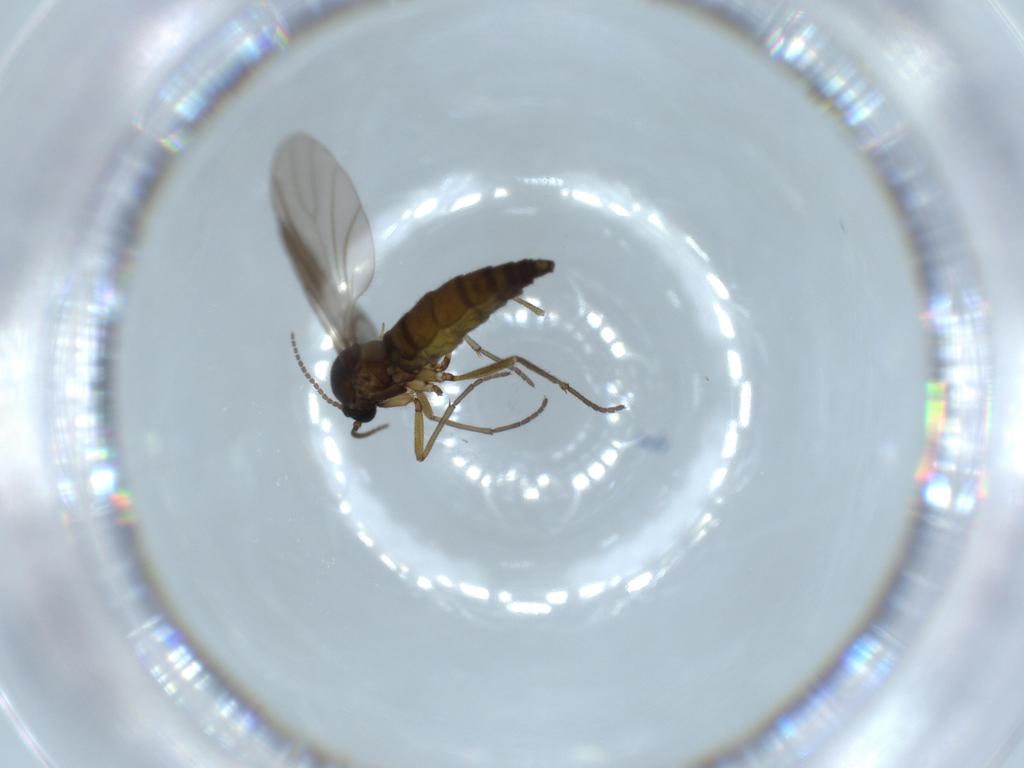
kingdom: Animalia
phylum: Arthropoda
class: Insecta
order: Diptera
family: Sciaridae
